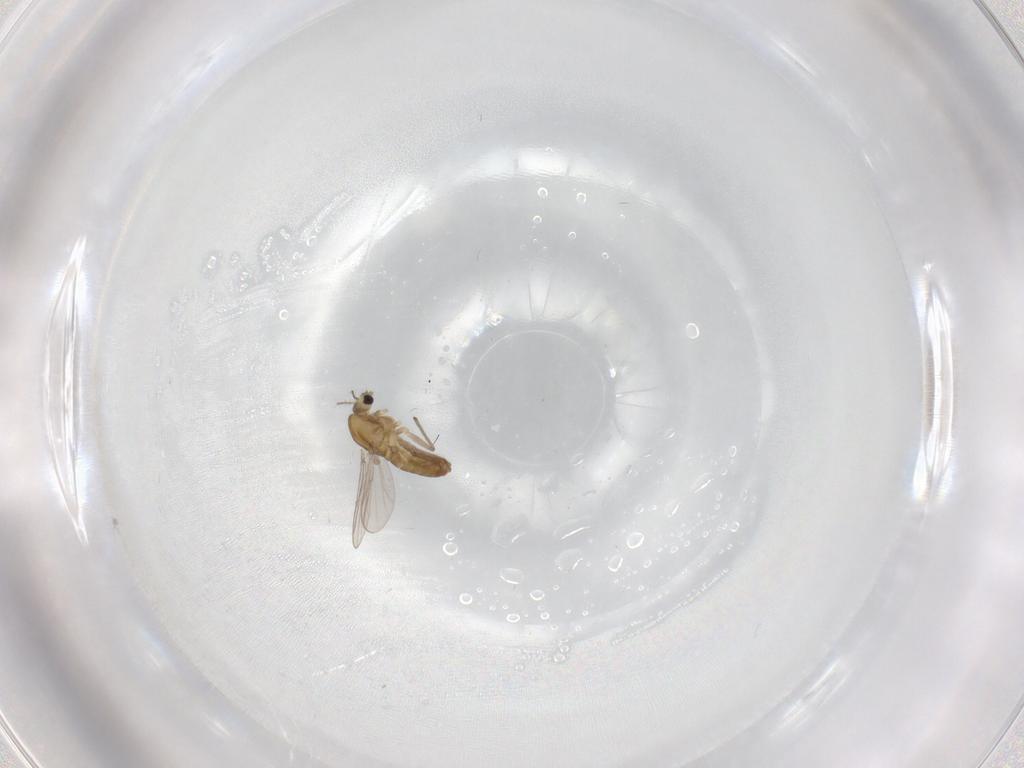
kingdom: Animalia
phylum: Arthropoda
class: Insecta
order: Diptera
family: Chironomidae
